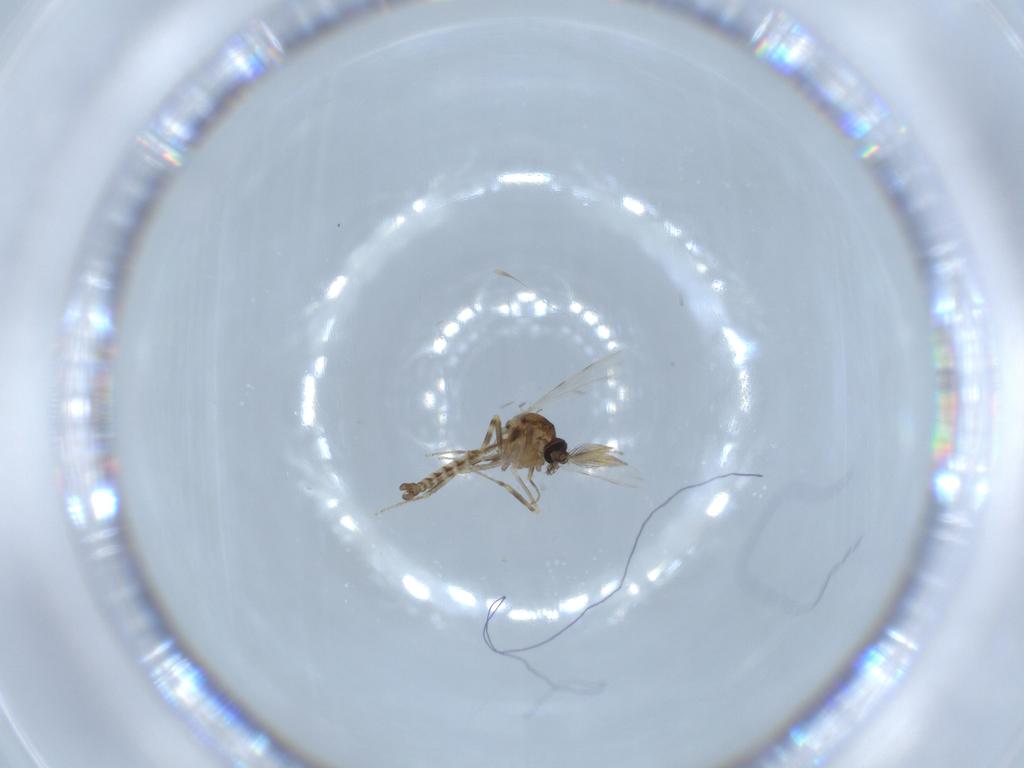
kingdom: Animalia
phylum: Arthropoda
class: Insecta
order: Diptera
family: Ceratopogonidae
